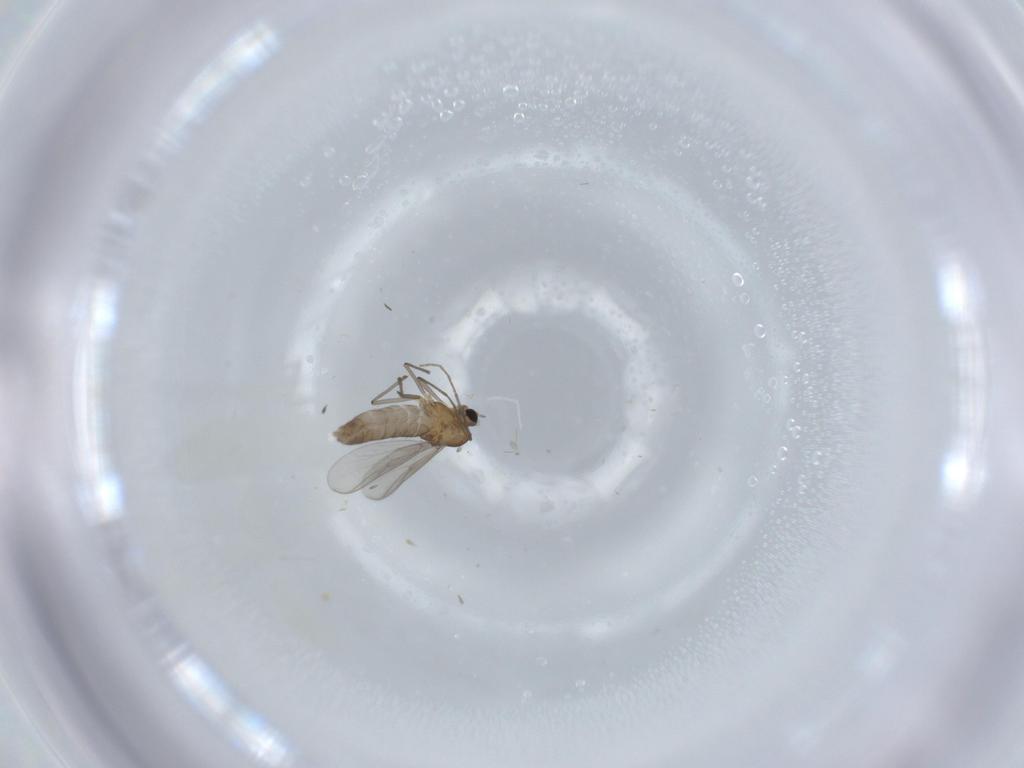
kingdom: Animalia
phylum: Arthropoda
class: Insecta
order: Diptera
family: Chironomidae
